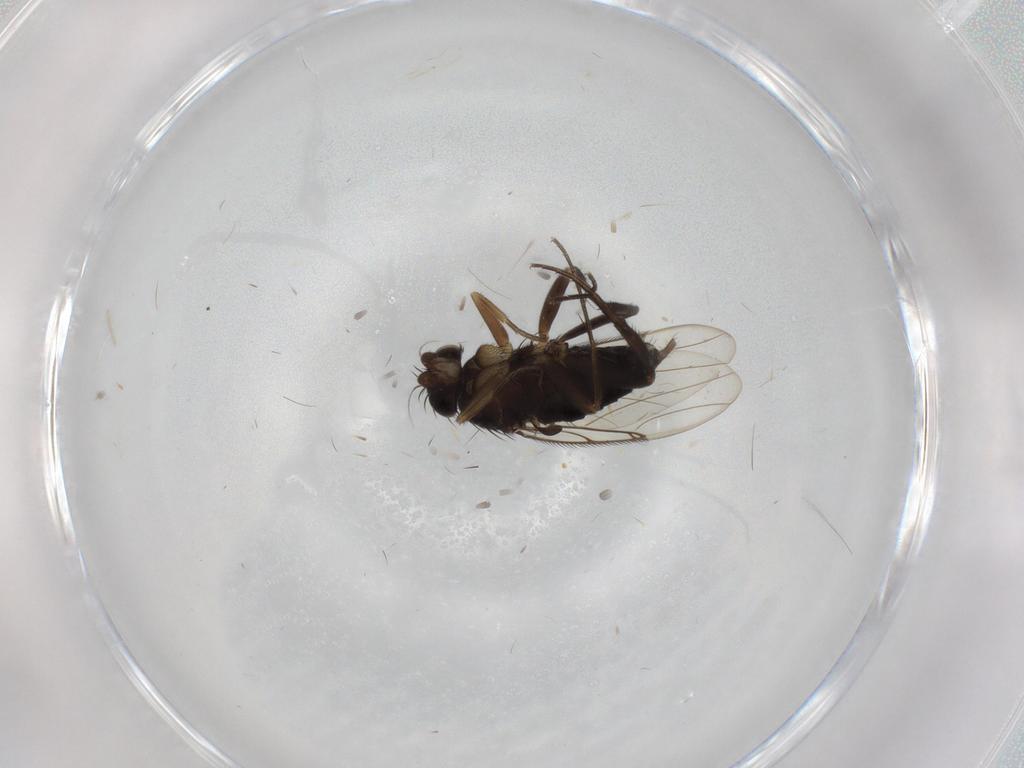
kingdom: Animalia
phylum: Arthropoda
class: Insecta
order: Diptera
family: Phoridae
